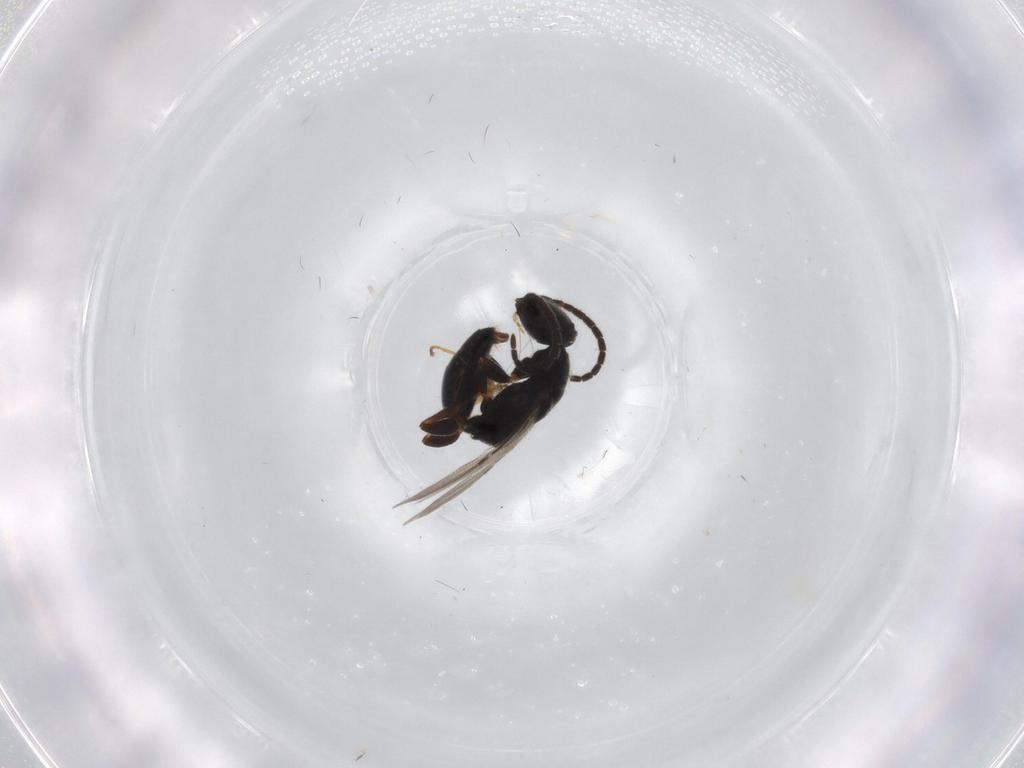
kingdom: Animalia
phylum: Arthropoda
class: Insecta
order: Hymenoptera
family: Bethylidae
